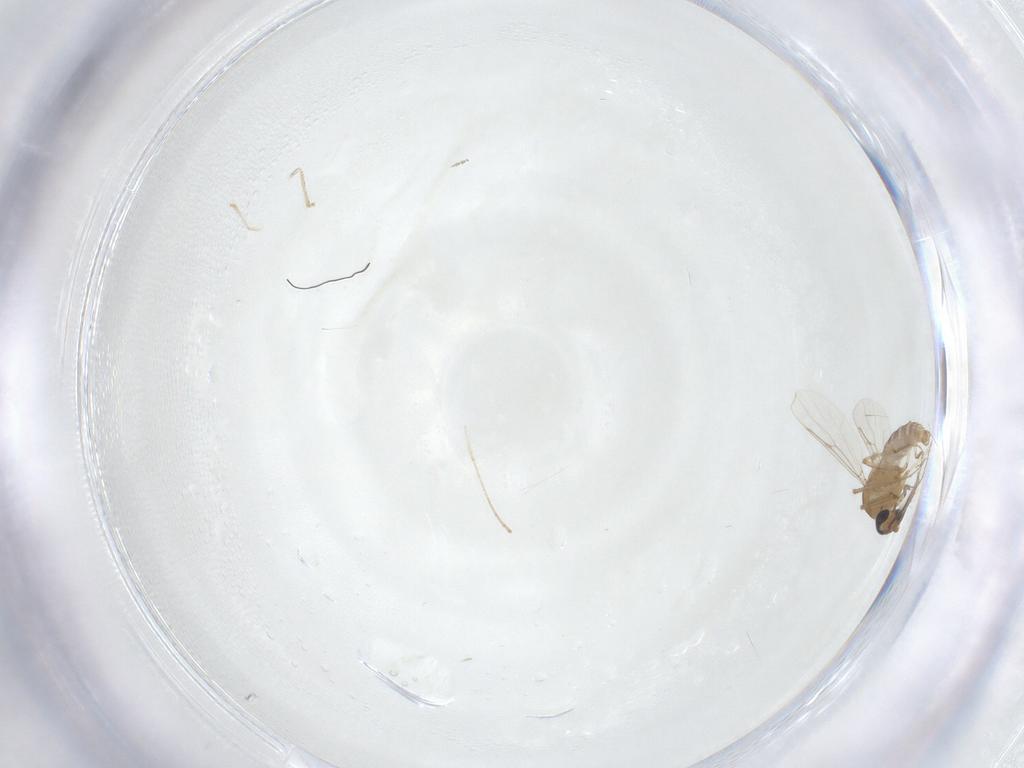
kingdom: Animalia
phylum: Arthropoda
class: Insecta
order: Diptera
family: Ceratopogonidae
